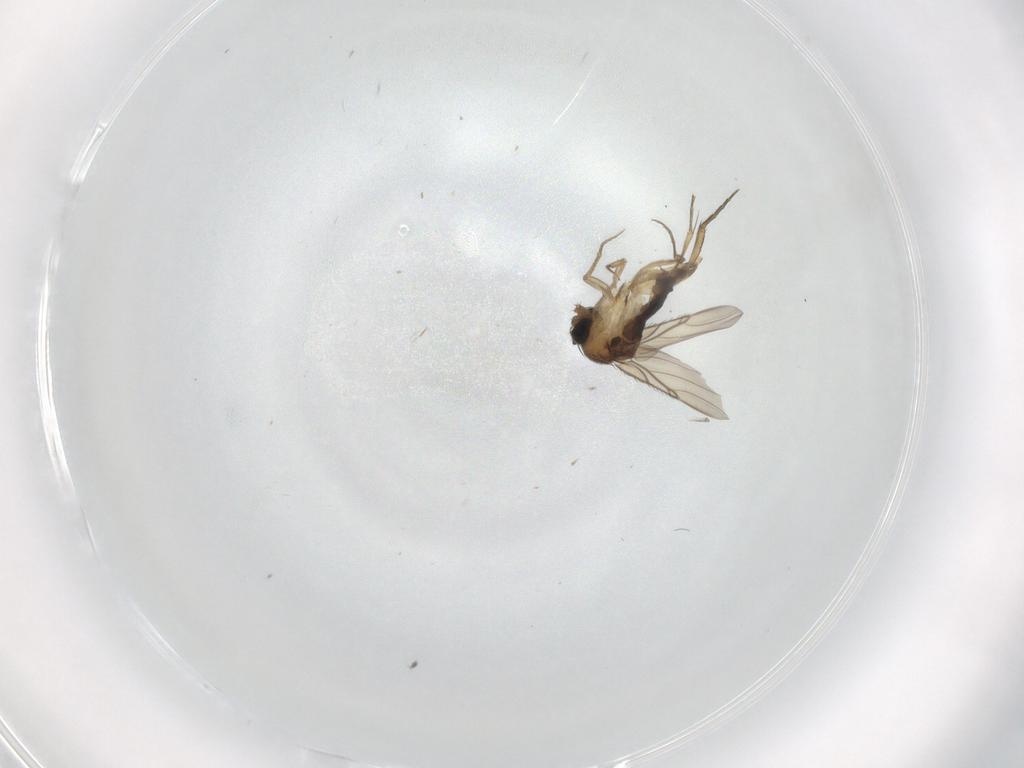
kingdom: Animalia
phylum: Arthropoda
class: Insecta
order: Diptera
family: Phoridae
